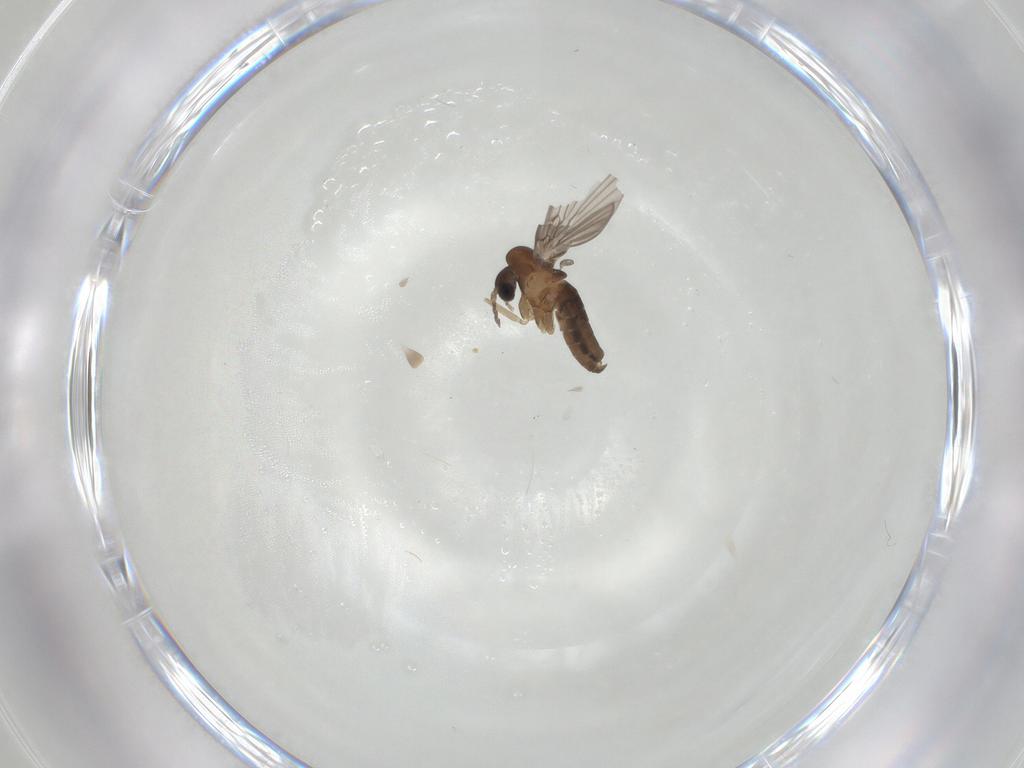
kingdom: Animalia
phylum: Arthropoda
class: Insecta
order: Diptera
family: Psychodidae
